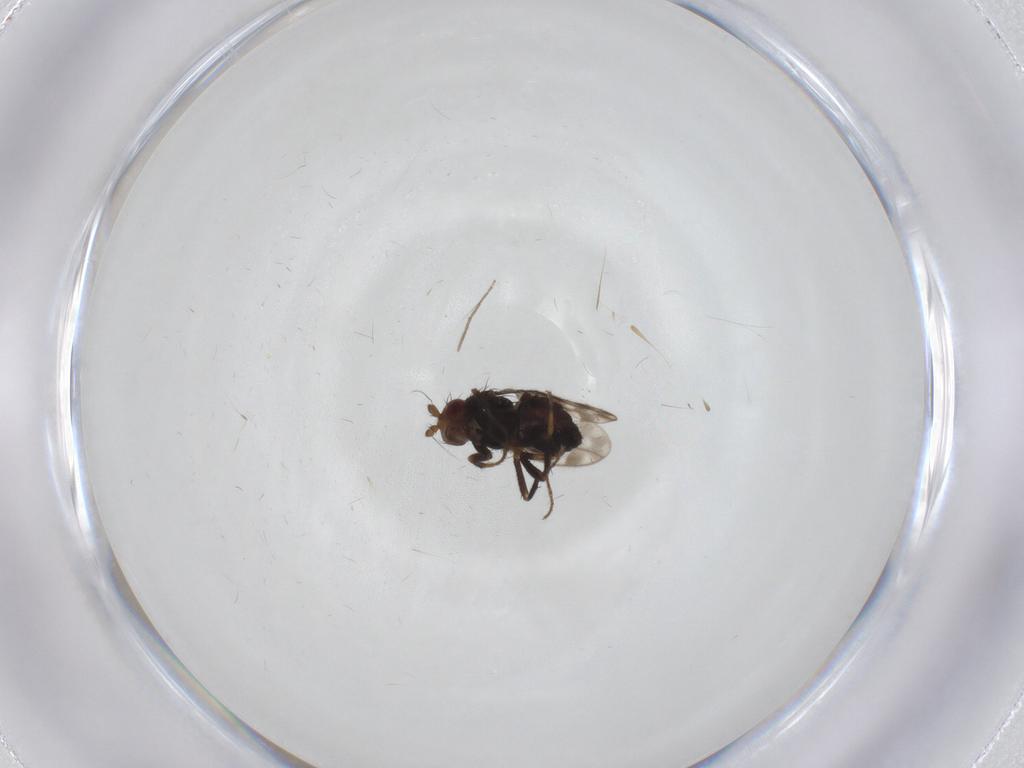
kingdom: Animalia
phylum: Arthropoda
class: Insecta
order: Diptera
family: Sphaeroceridae
